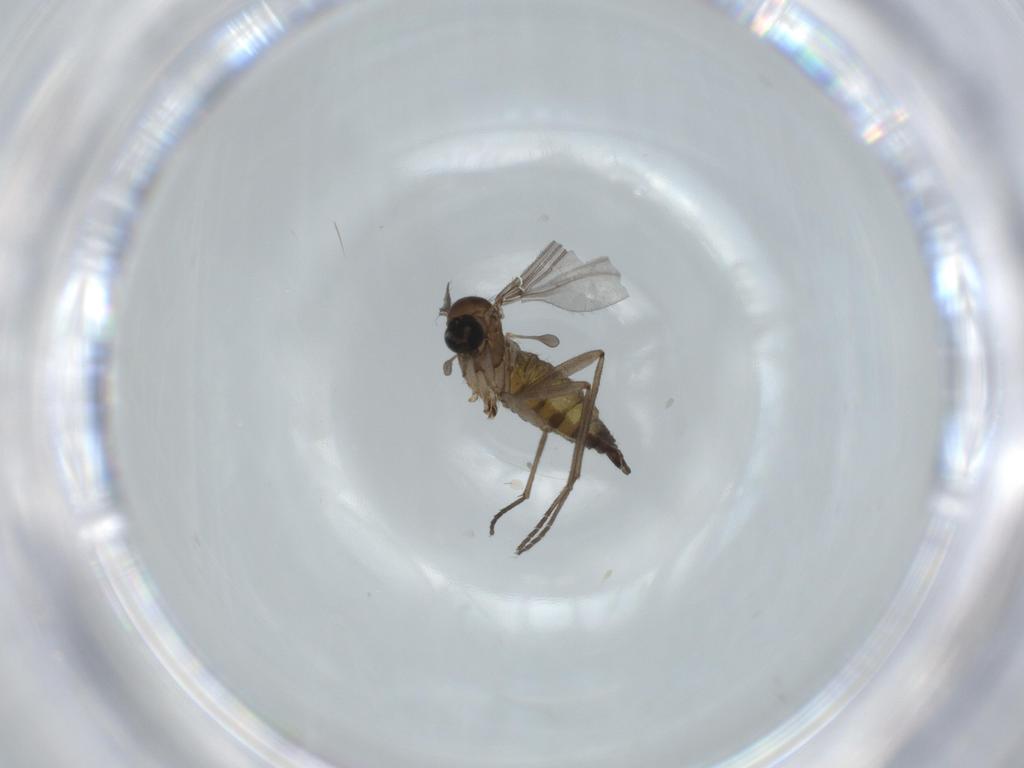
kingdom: Animalia
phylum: Arthropoda
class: Insecta
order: Diptera
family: Sciaridae
